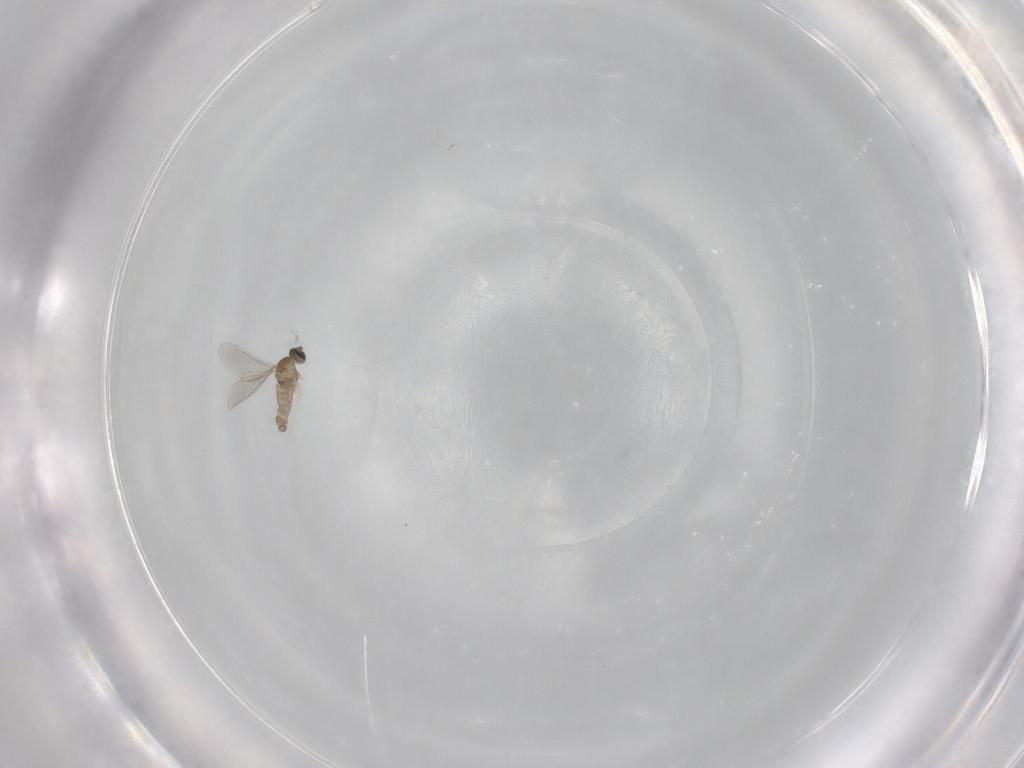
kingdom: Animalia
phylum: Arthropoda
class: Insecta
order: Diptera
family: Cecidomyiidae
